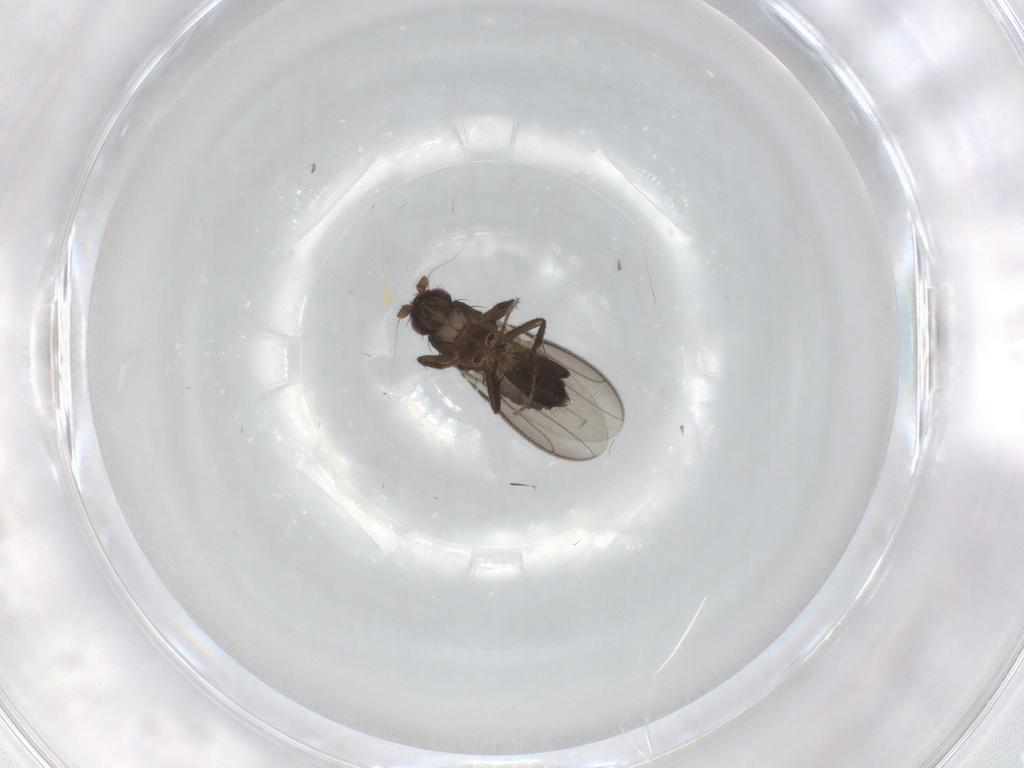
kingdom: Animalia
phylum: Arthropoda
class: Insecta
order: Diptera
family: Sphaeroceridae
